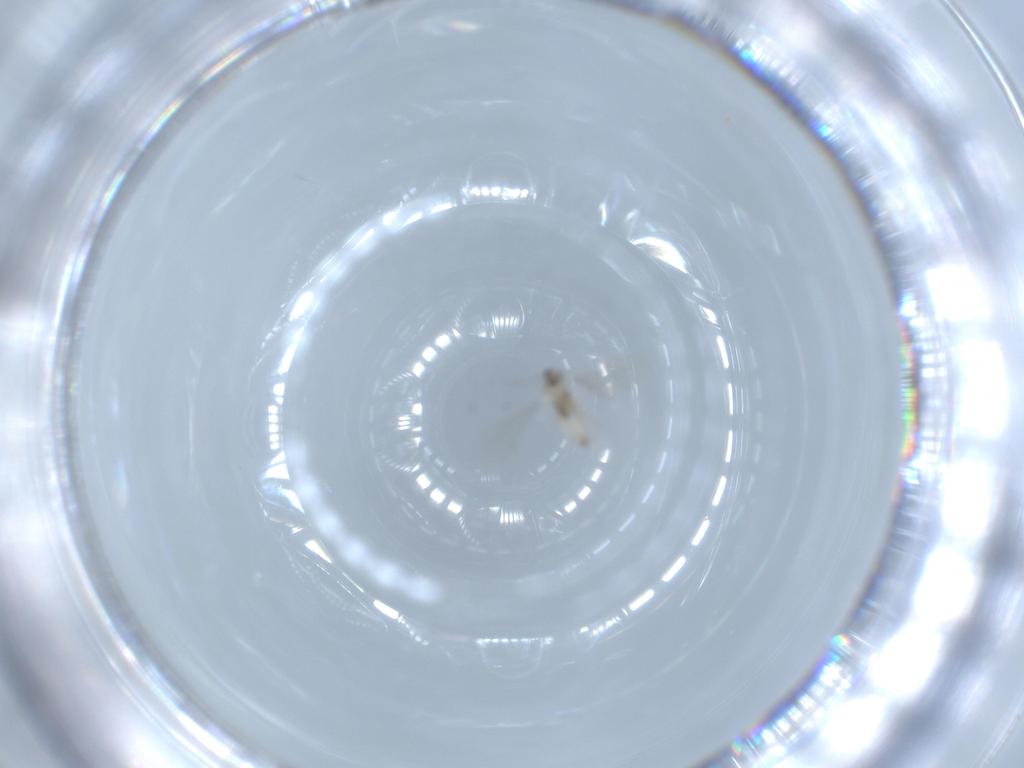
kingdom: Animalia
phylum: Arthropoda
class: Insecta
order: Diptera
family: Cecidomyiidae
